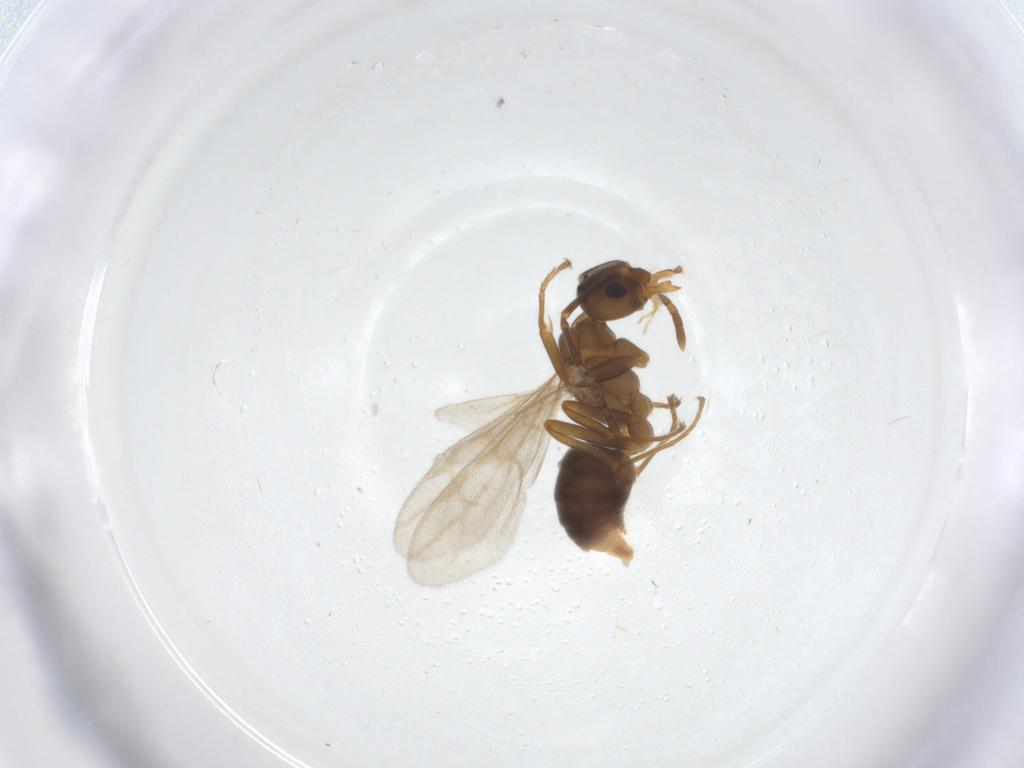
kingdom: Animalia
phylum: Arthropoda
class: Insecta
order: Hymenoptera
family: Formicidae
